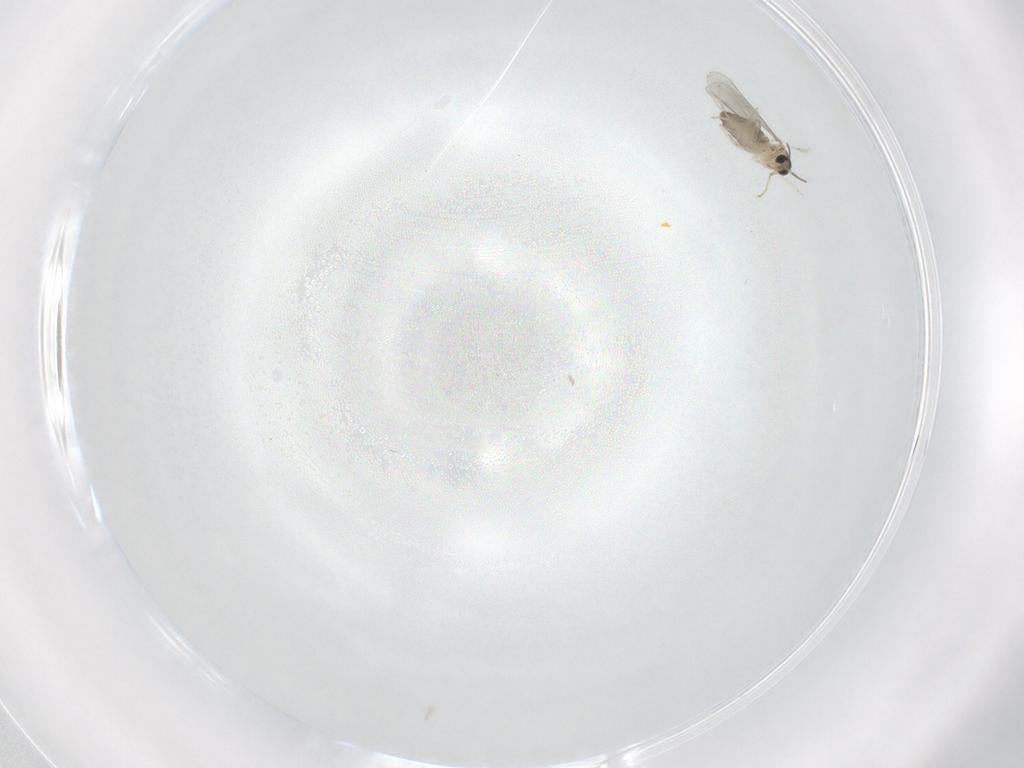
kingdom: Animalia
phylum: Arthropoda
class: Insecta
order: Diptera
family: Cecidomyiidae
